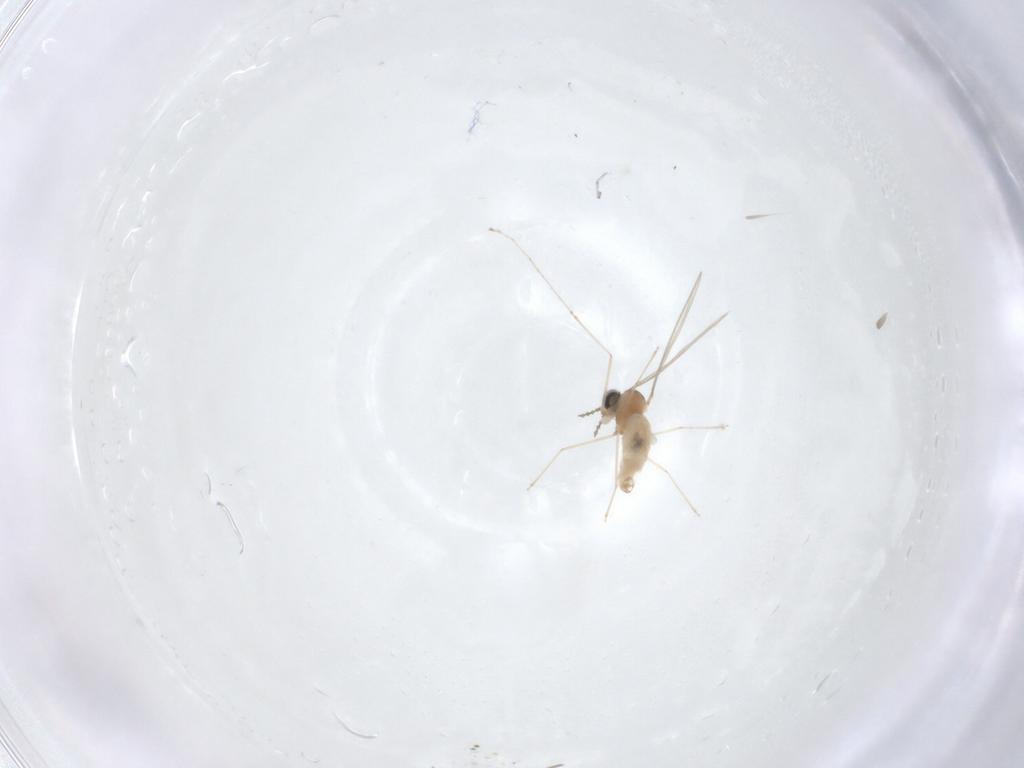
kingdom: Animalia
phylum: Arthropoda
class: Insecta
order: Diptera
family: Cecidomyiidae
